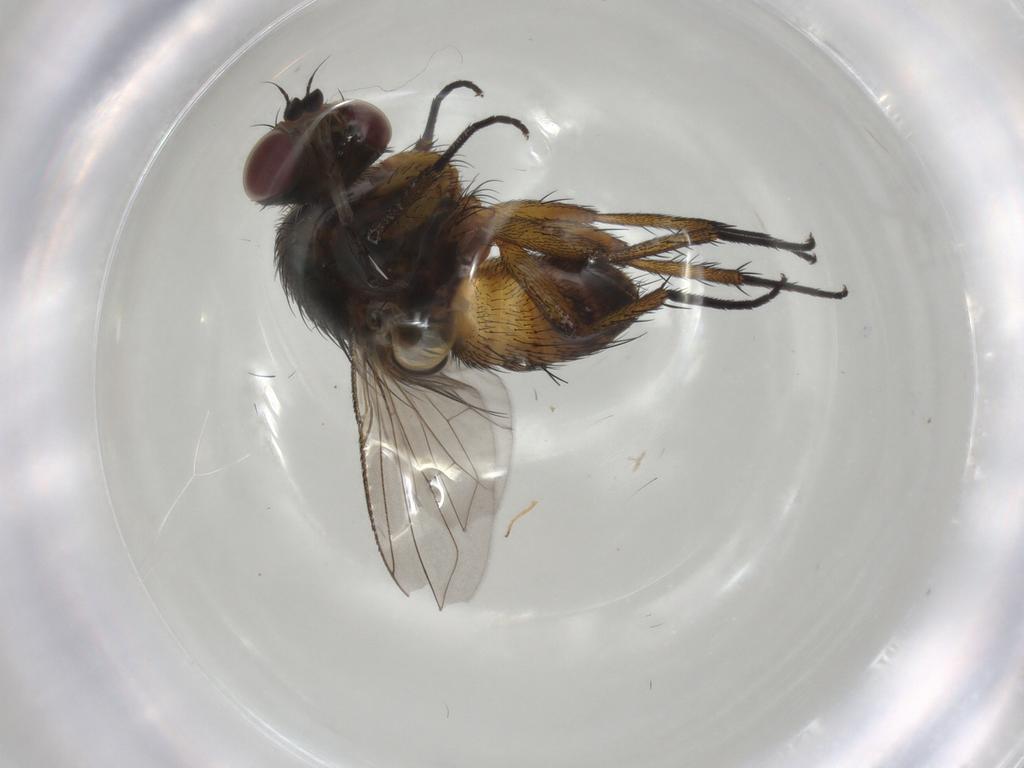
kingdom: Animalia
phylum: Arthropoda
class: Insecta
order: Diptera
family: Tachinidae
